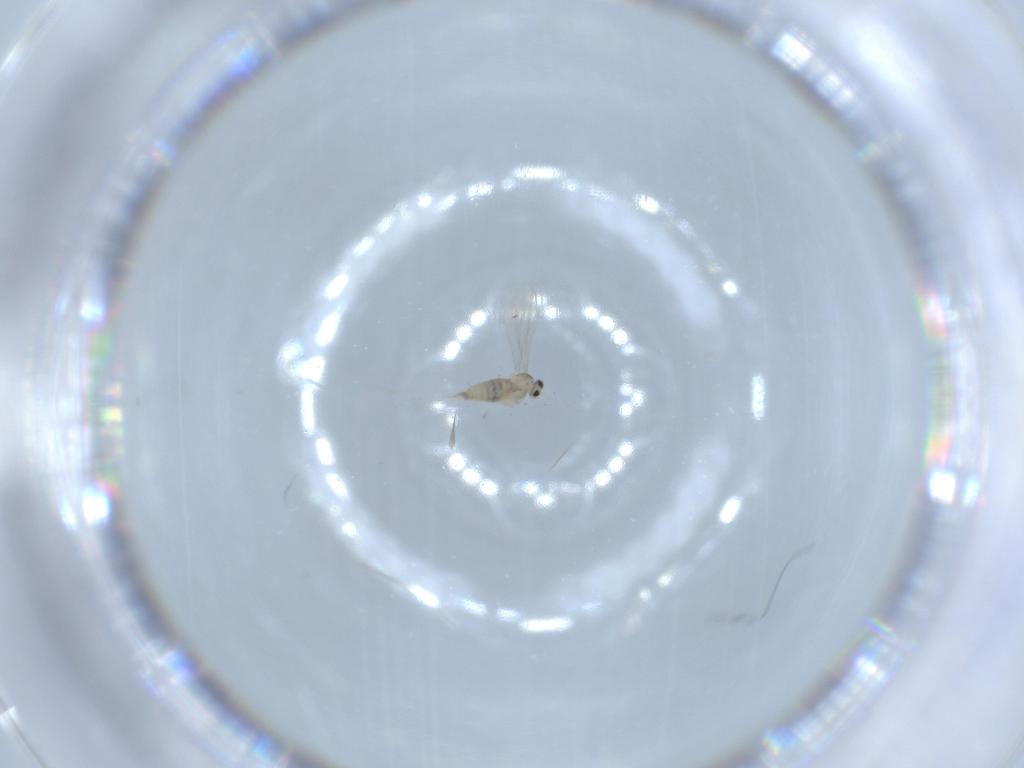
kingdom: Animalia
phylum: Arthropoda
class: Insecta
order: Diptera
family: Cecidomyiidae
